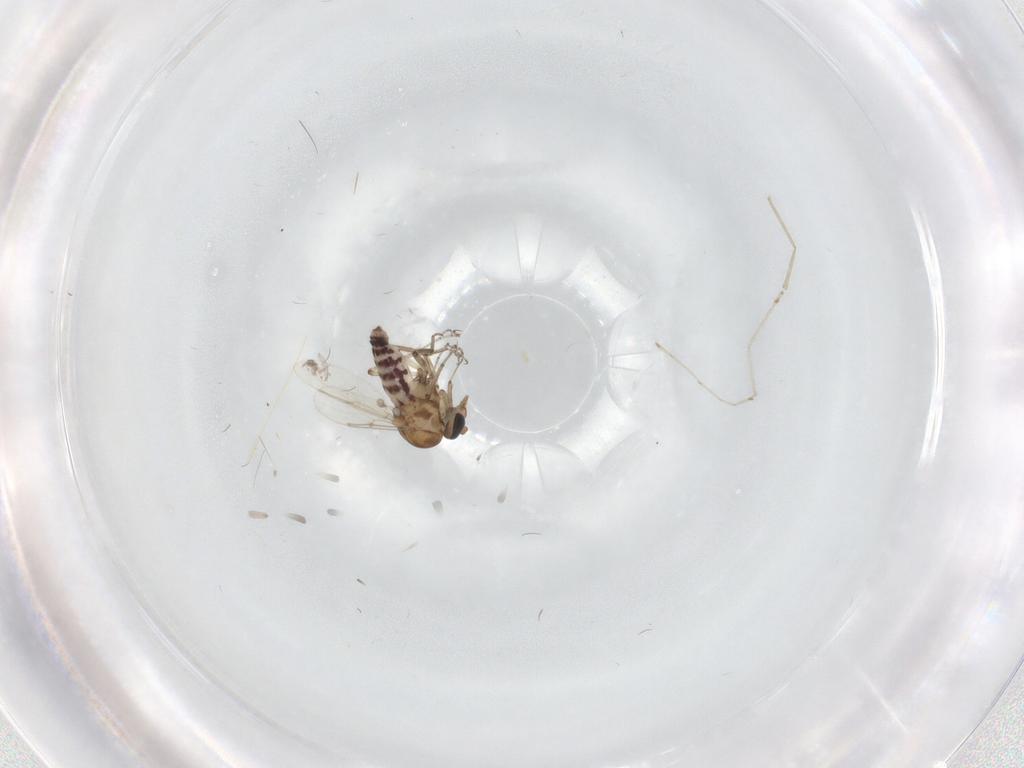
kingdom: Animalia
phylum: Arthropoda
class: Insecta
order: Diptera
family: Ceratopogonidae
